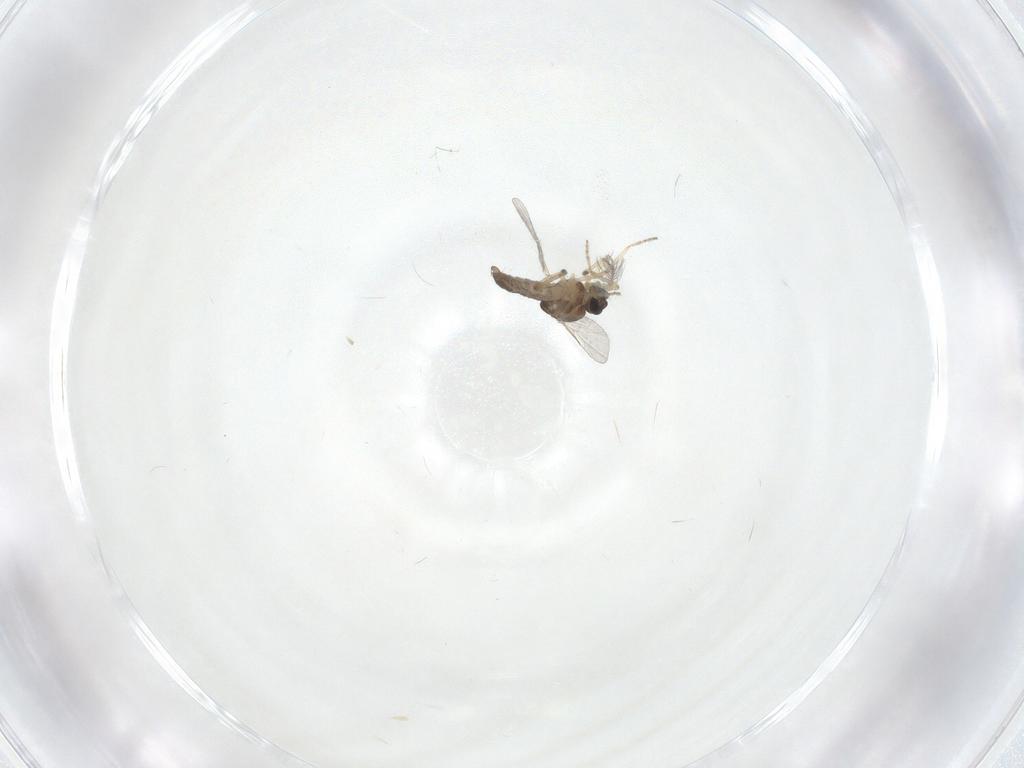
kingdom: Animalia
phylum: Arthropoda
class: Insecta
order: Diptera
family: Ceratopogonidae
